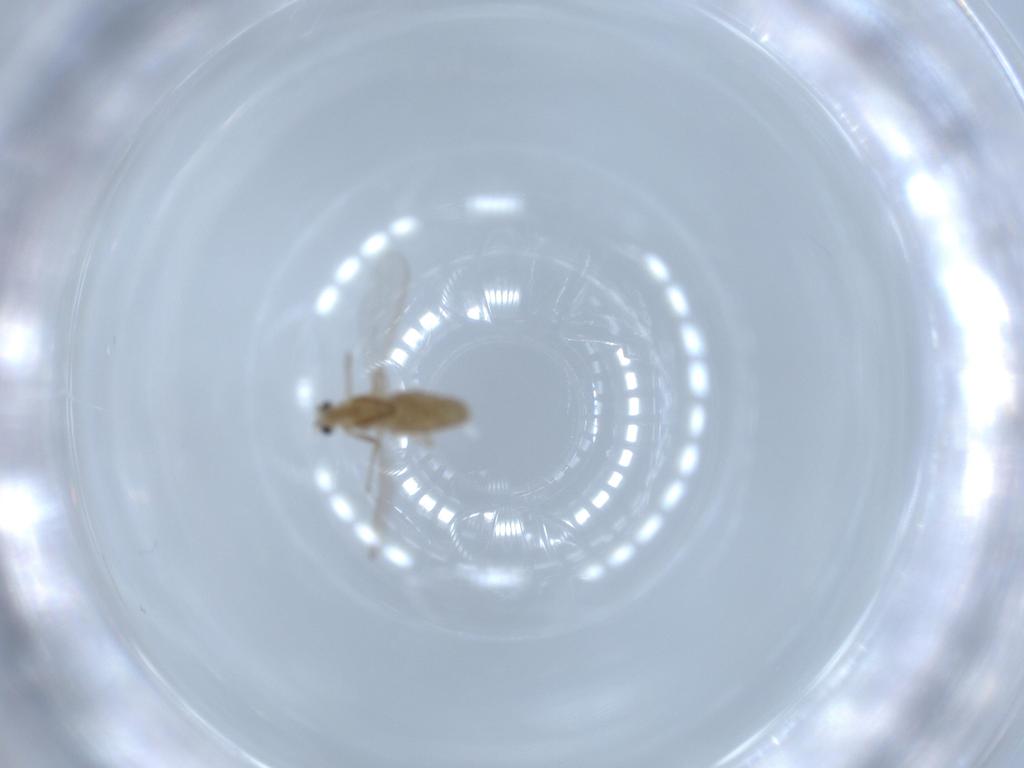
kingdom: Animalia
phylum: Arthropoda
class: Insecta
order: Diptera
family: Chironomidae
